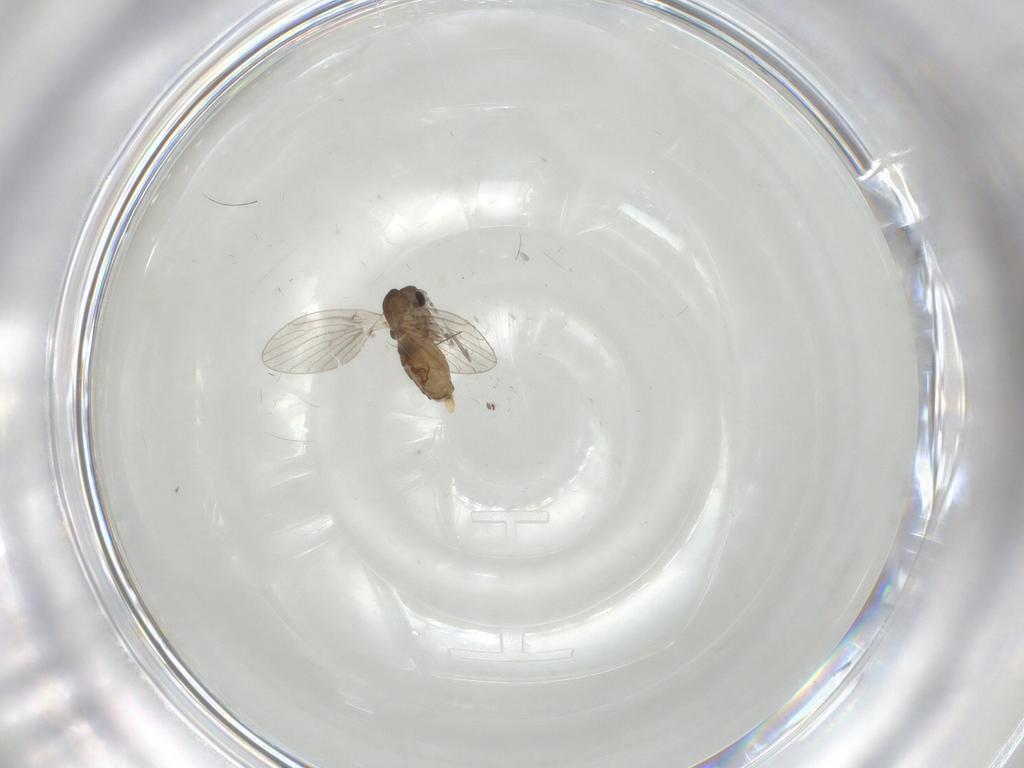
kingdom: Animalia
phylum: Arthropoda
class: Insecta
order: Diptera
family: Psychodidae
